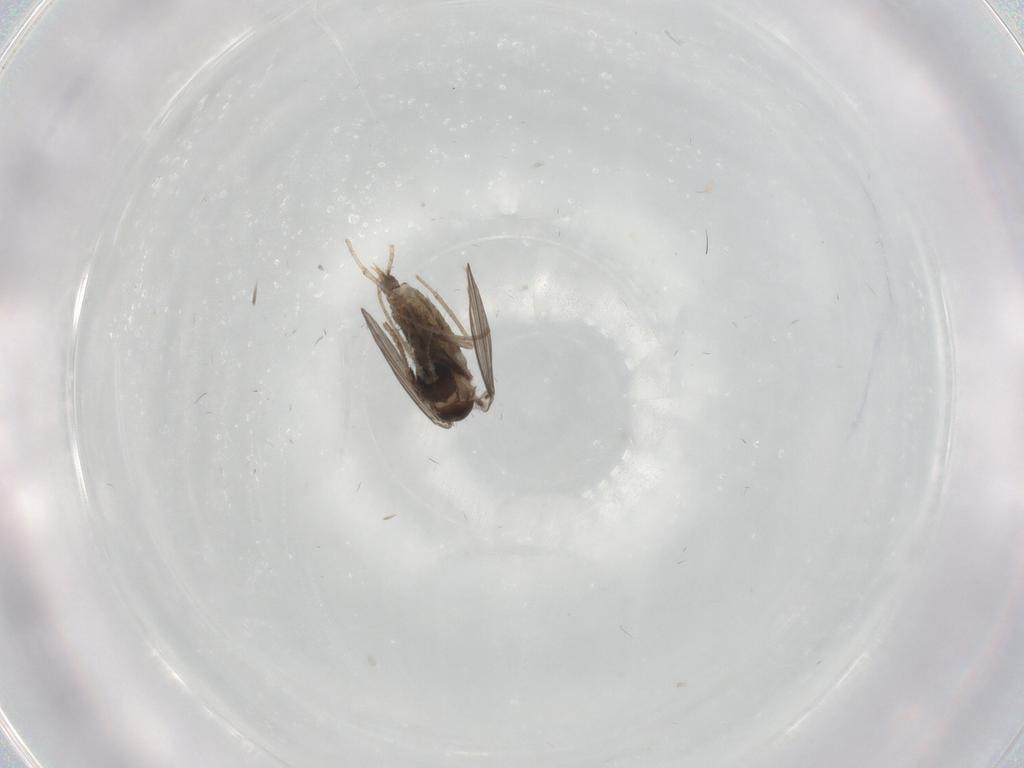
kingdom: Animalia
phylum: Arthropoda
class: Insecta
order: Diptera
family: Psychodidae
